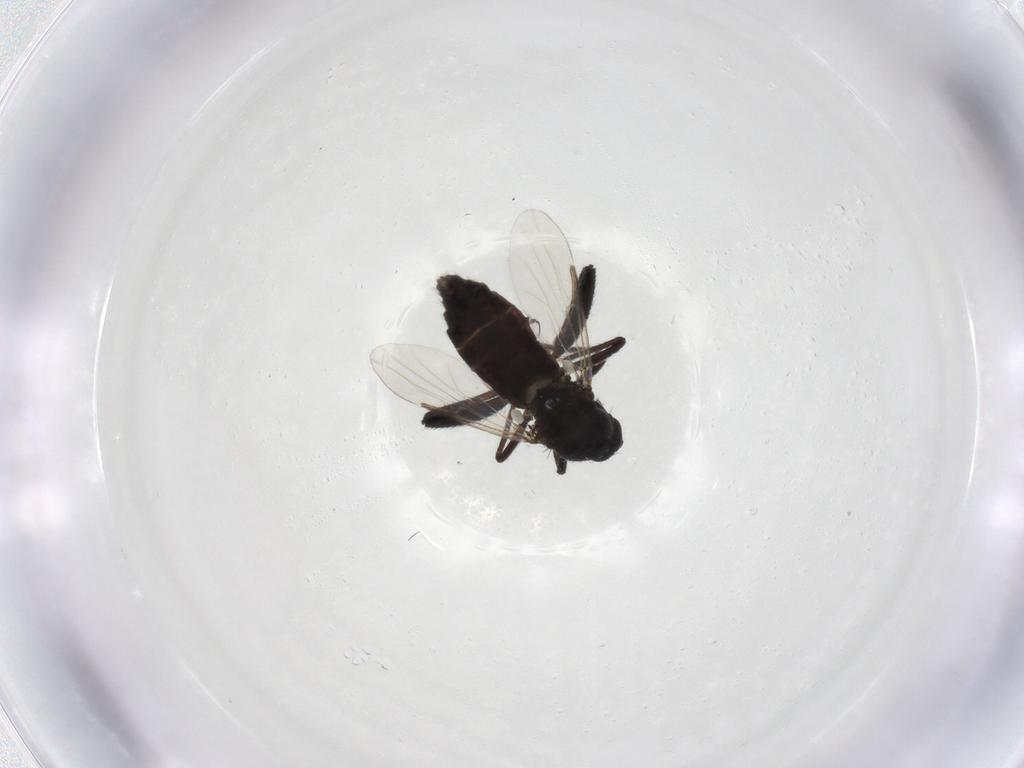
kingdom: Animalia
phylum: Arthropoda
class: Insecta
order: Diptera
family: Ceratopogonidae
